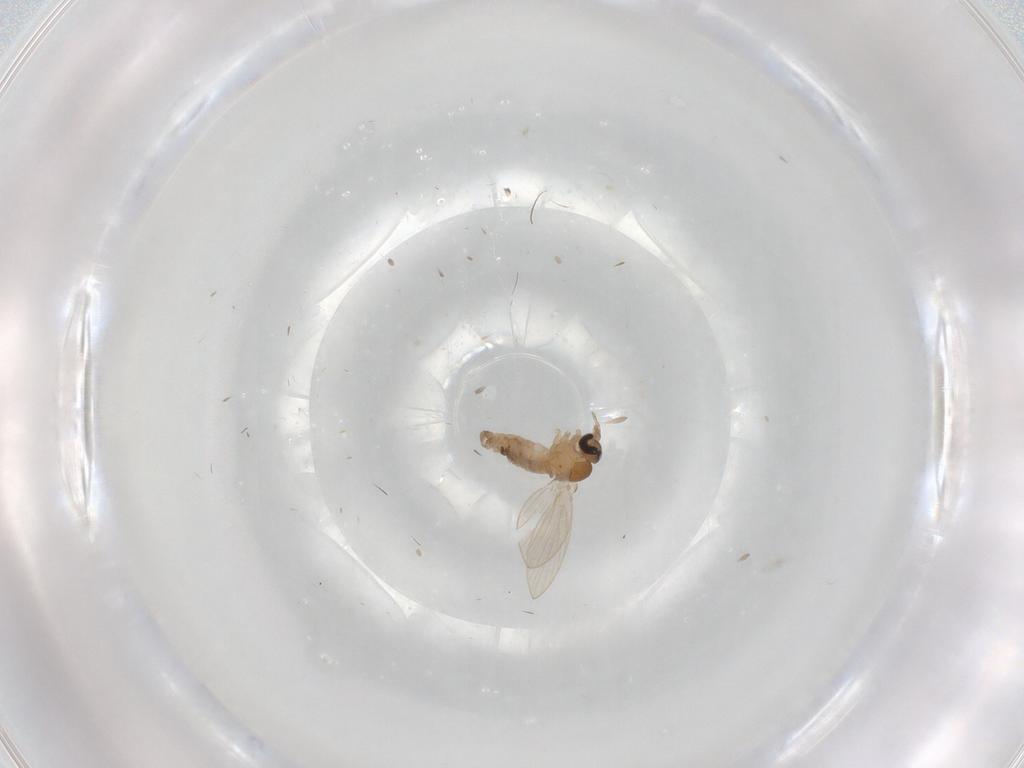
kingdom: Animalia
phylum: Arthropoda
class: Insecta
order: Diptera
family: Psychodidae
